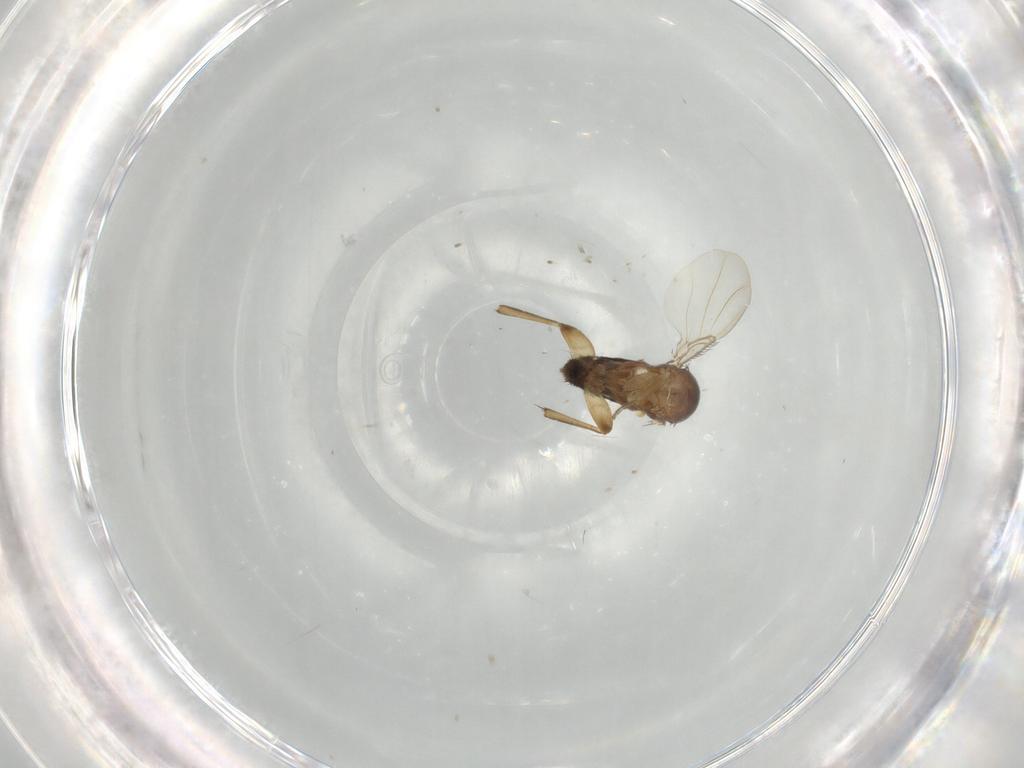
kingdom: Animalia
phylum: Arthropoda
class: Insecta
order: Diptera
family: Phoridae
